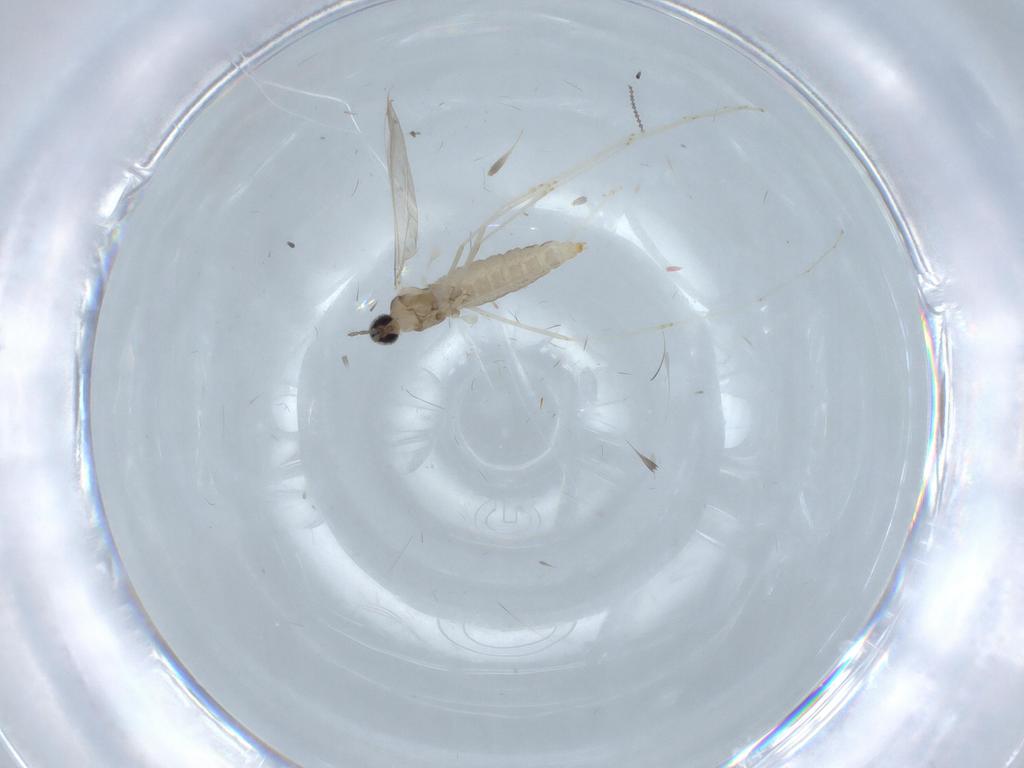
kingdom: Animalia
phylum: Arthropoda
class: Insecta
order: Diptera
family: Cecidomyiidae
